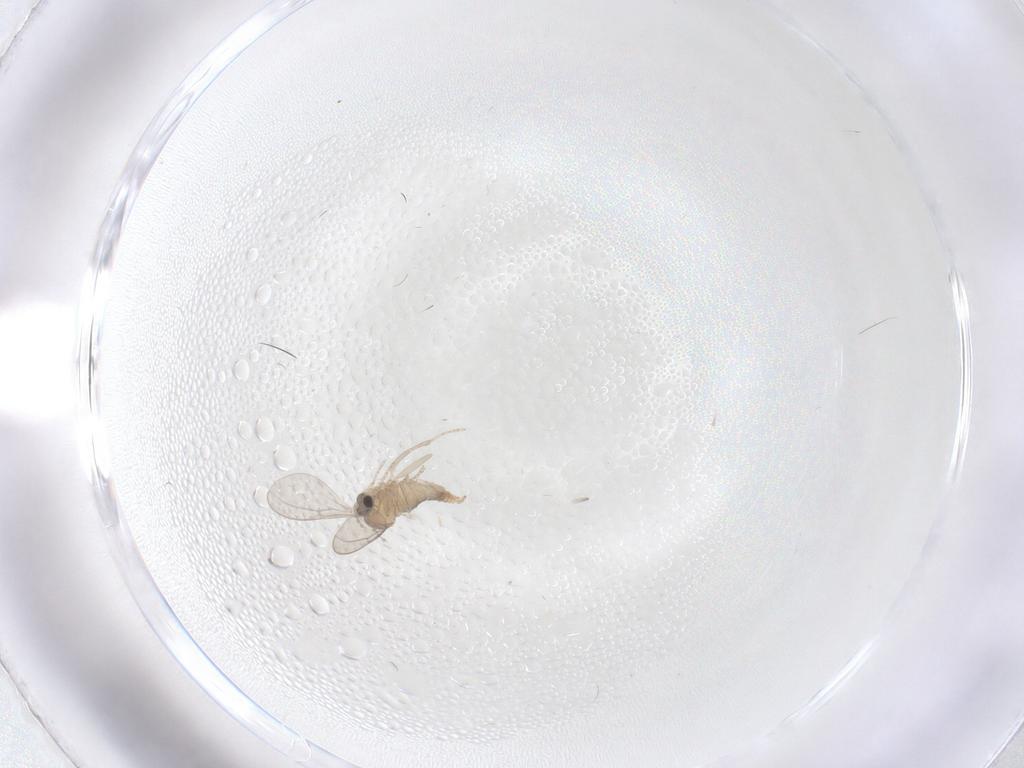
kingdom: Animalia
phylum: Arthropoda
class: Insecta
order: Diptera
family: Cecidomyiidae
